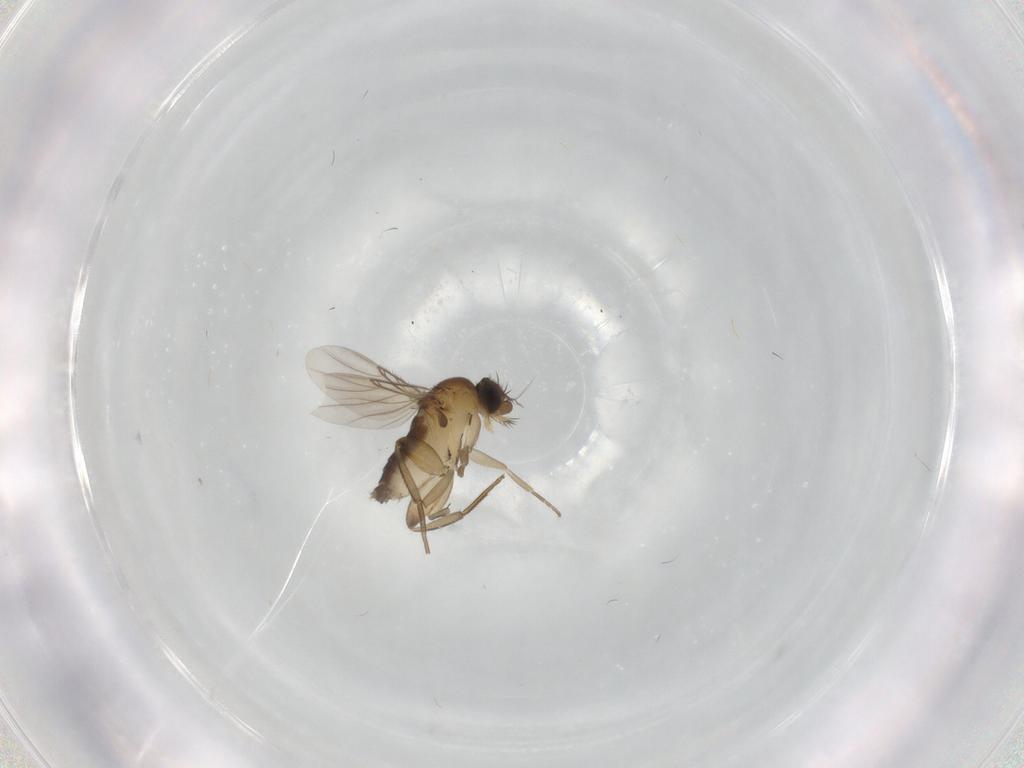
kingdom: Animalia
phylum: Arthropoda
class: Insecta
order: Diptera
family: Phoridae
